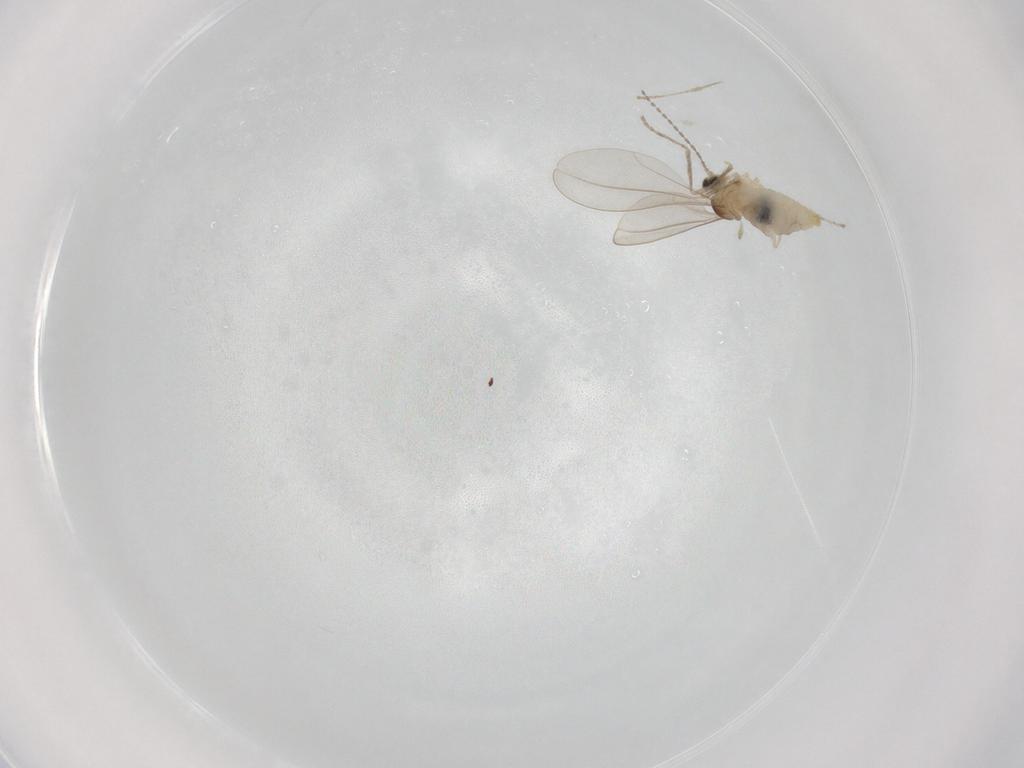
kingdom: Animalia
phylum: Arthropoda
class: Insecta
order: Diptera
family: Cecidomyiidae
